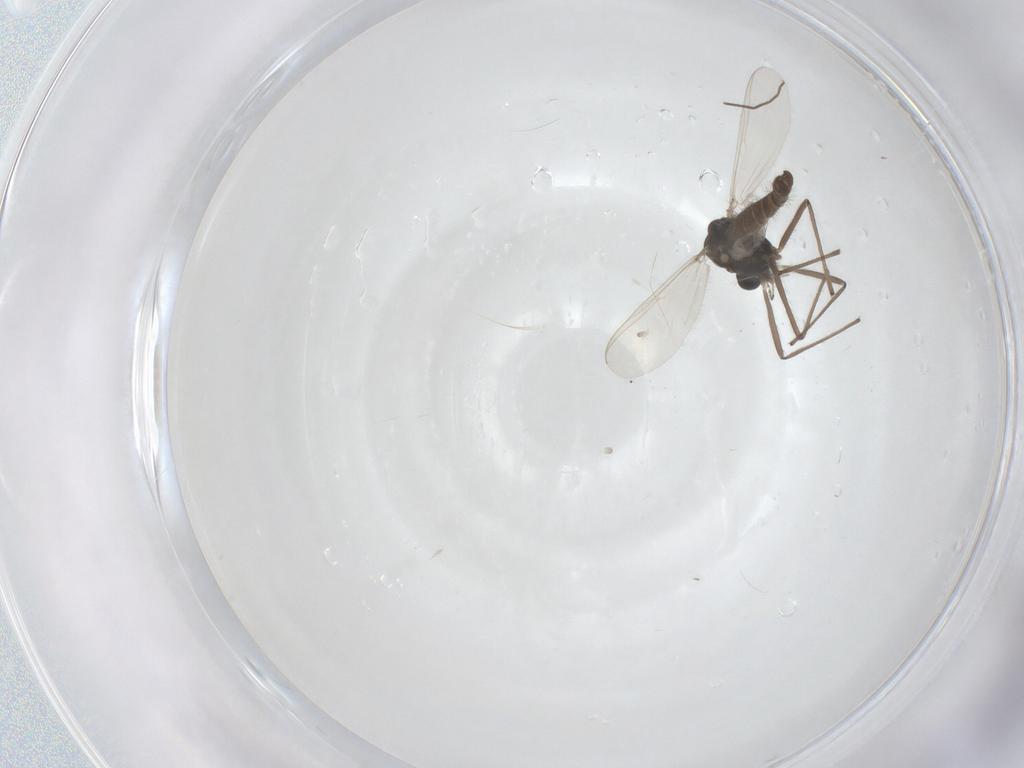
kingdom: Animalia
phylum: Arthropoda
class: Insecta
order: Diptera
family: Chironomidae
